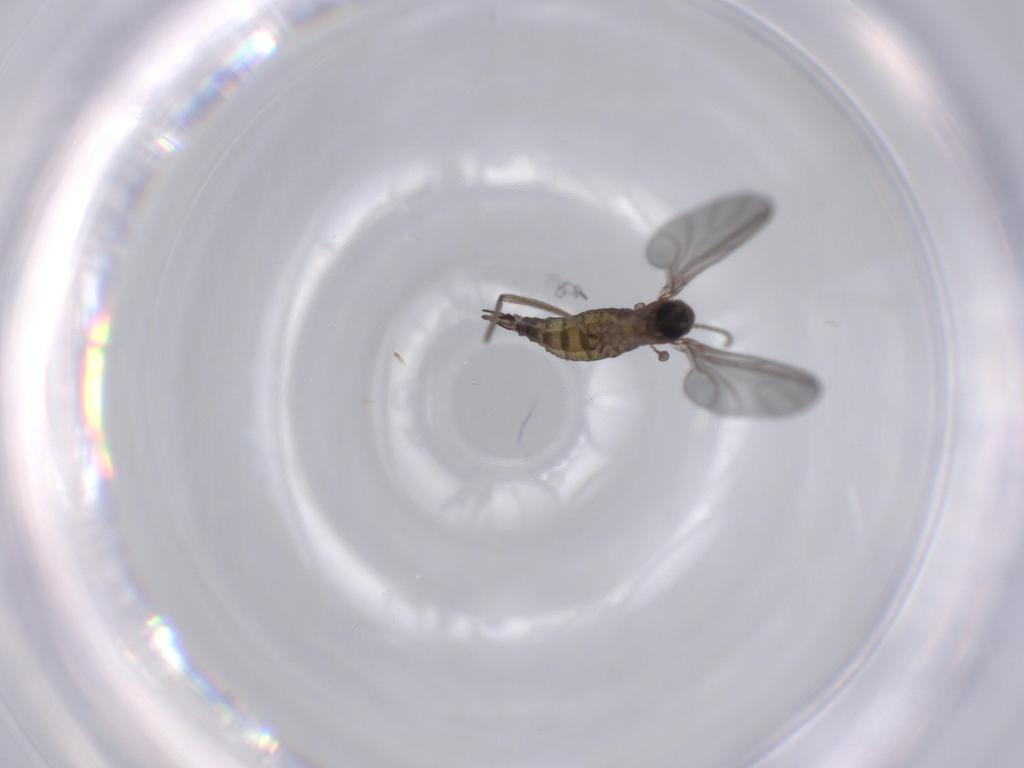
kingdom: Animalia
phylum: Arthropoda
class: Insecta
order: Diptera
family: Sciaridae
